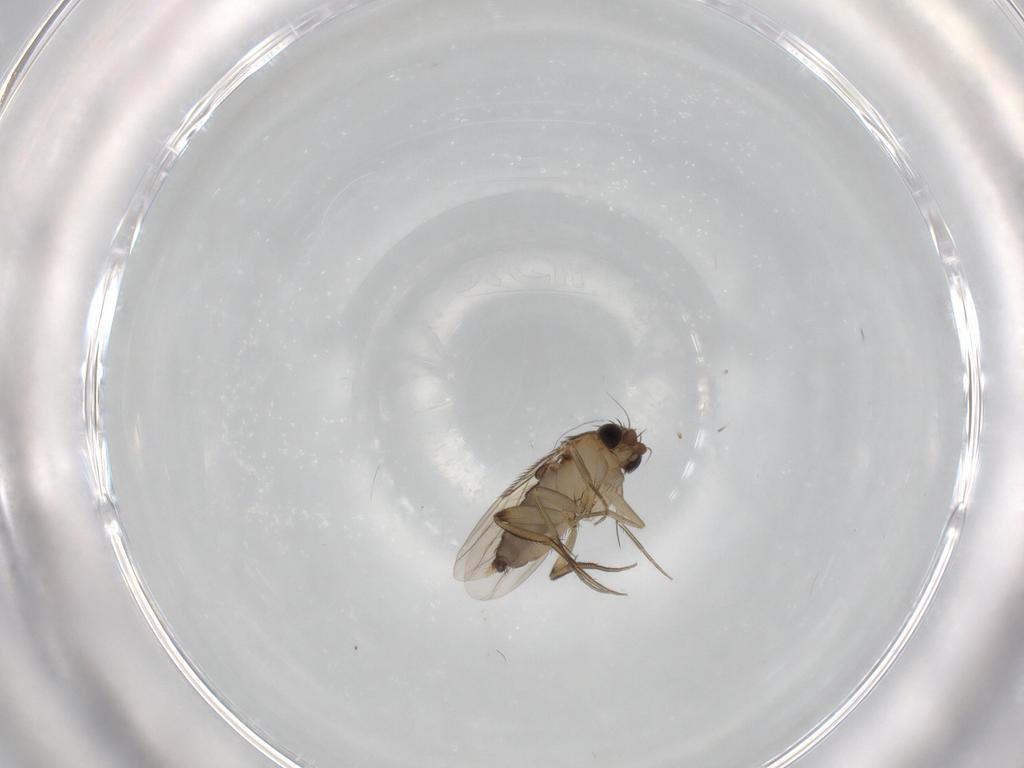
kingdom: Animalia
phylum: Arthropoda
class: Insecta
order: Diptera
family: Phoridae
